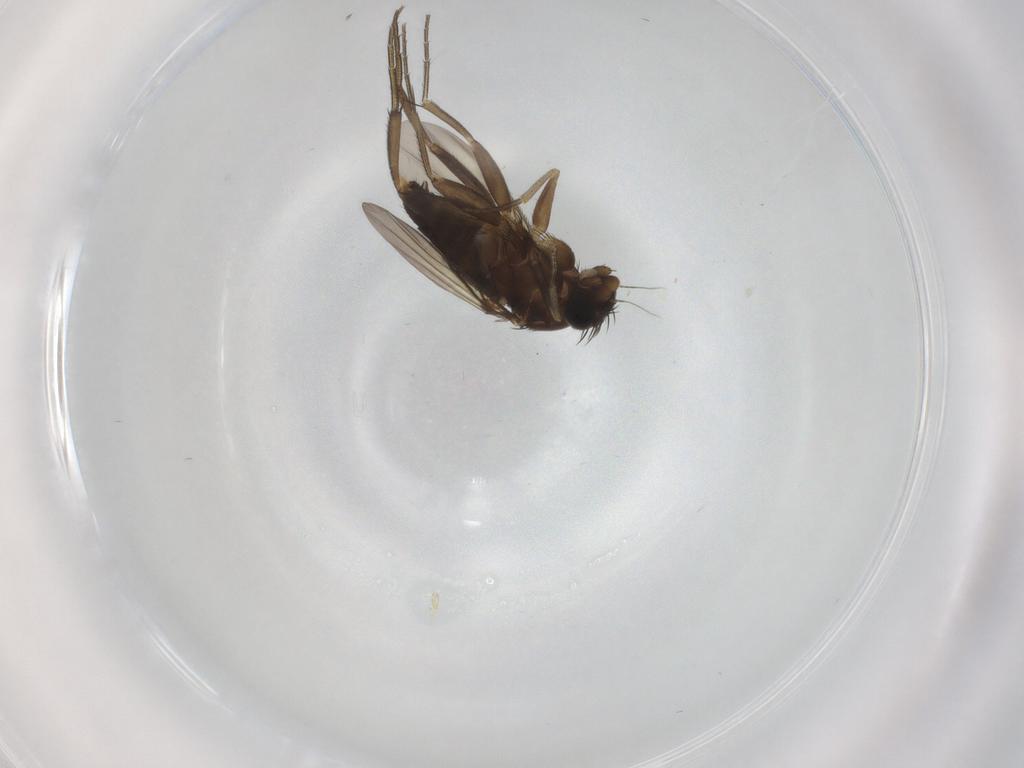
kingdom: Animalia
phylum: Arthropoda
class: Insecta
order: Diptera
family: Phoridae
